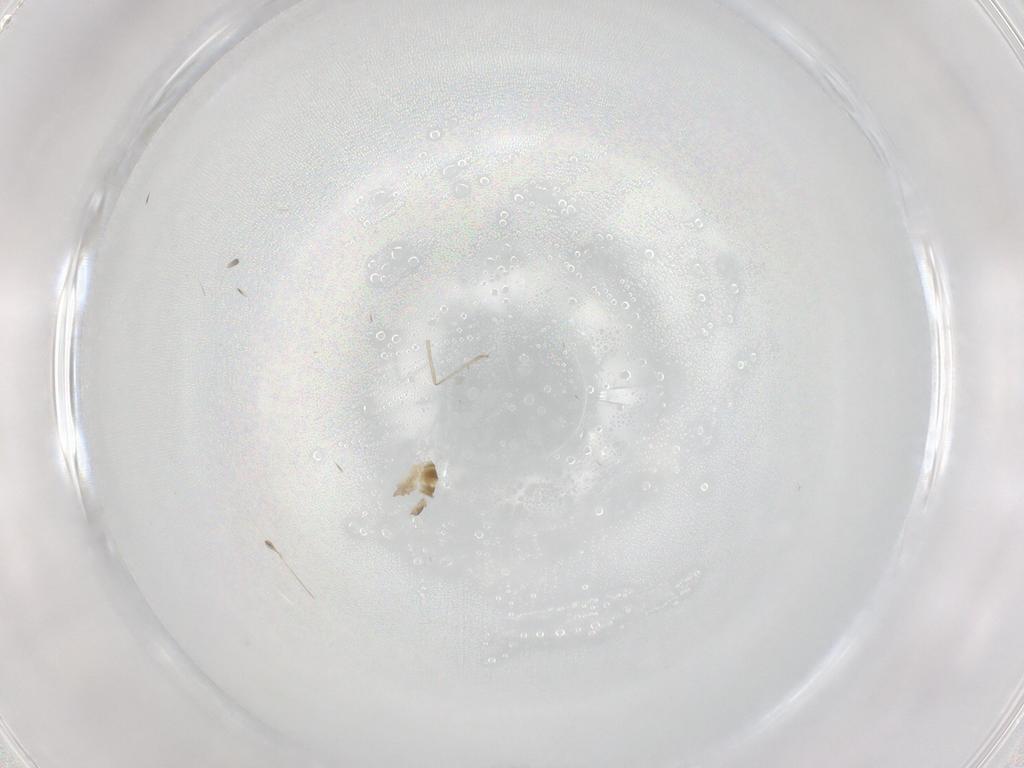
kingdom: Animalia
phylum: Arthropoda
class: Insecta
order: Diptera
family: Cecidomyiidae
